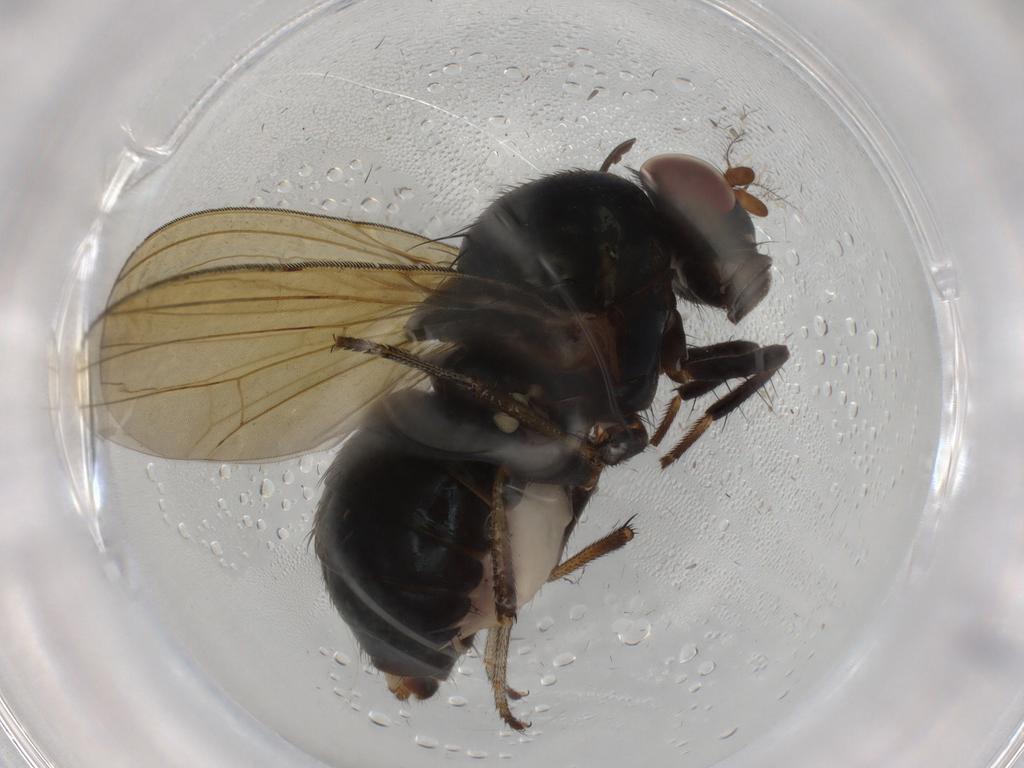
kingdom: Animalia
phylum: Arthropoda
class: Insecta
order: Diptera
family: Lauxaniidae
